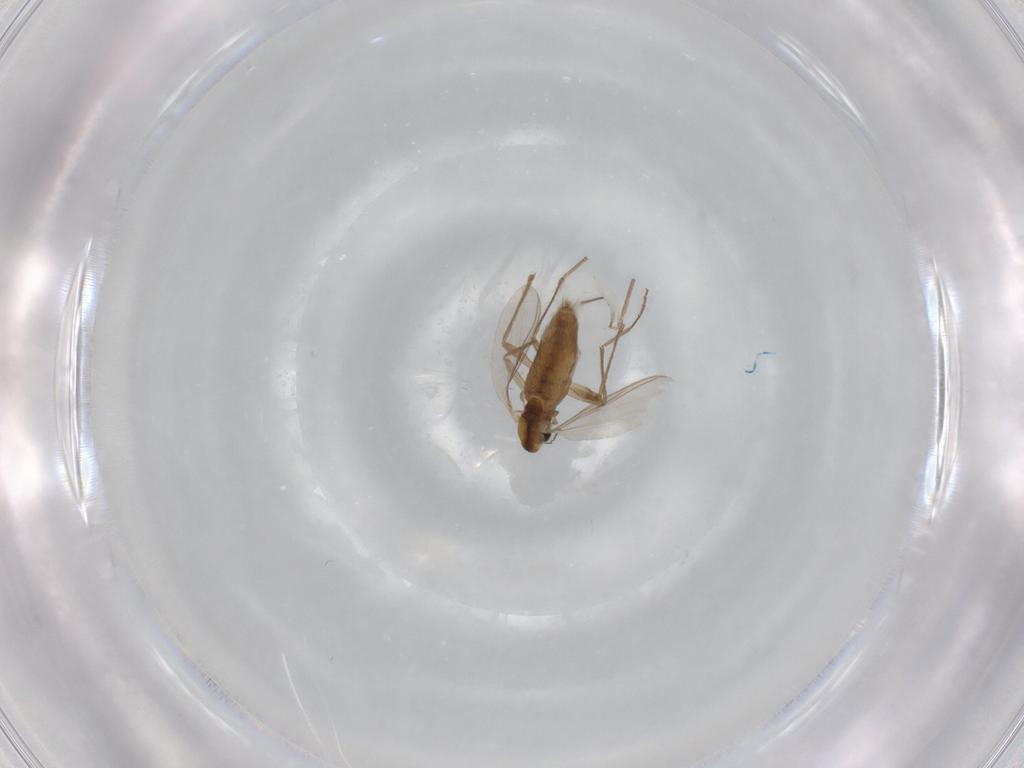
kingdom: Animalia
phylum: Arthropoda
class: Insecta
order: Diptera
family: Chironomidae
